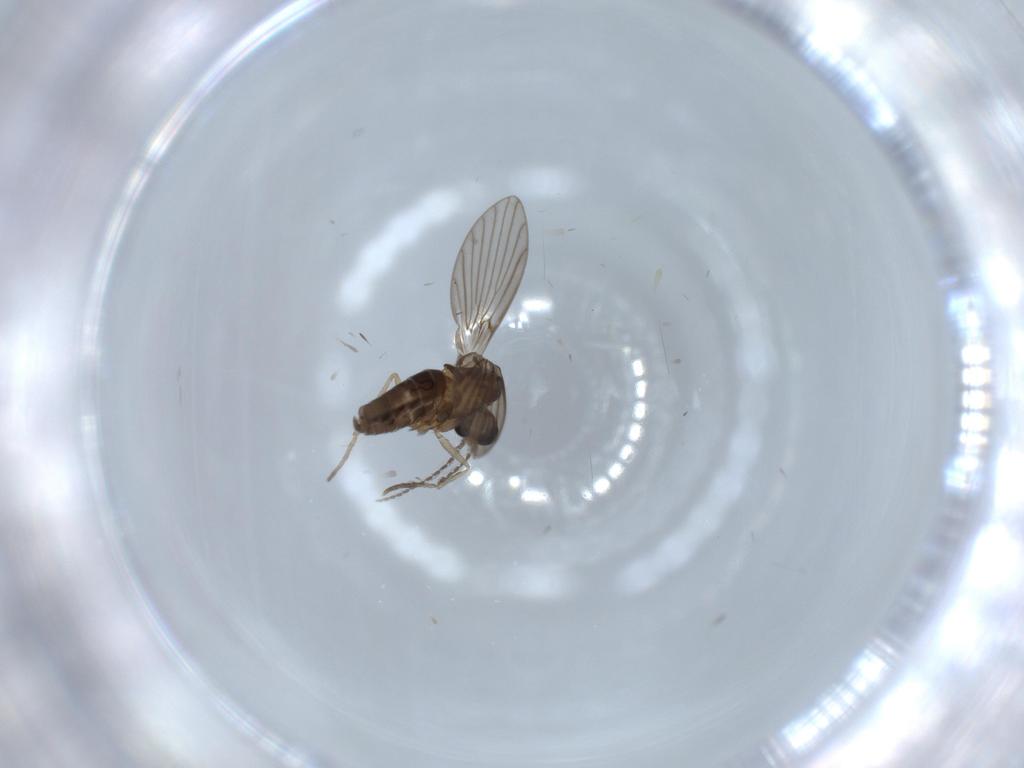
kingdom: Animalia
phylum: Arthropoda
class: Insecta
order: Diptera
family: Psychodidae
